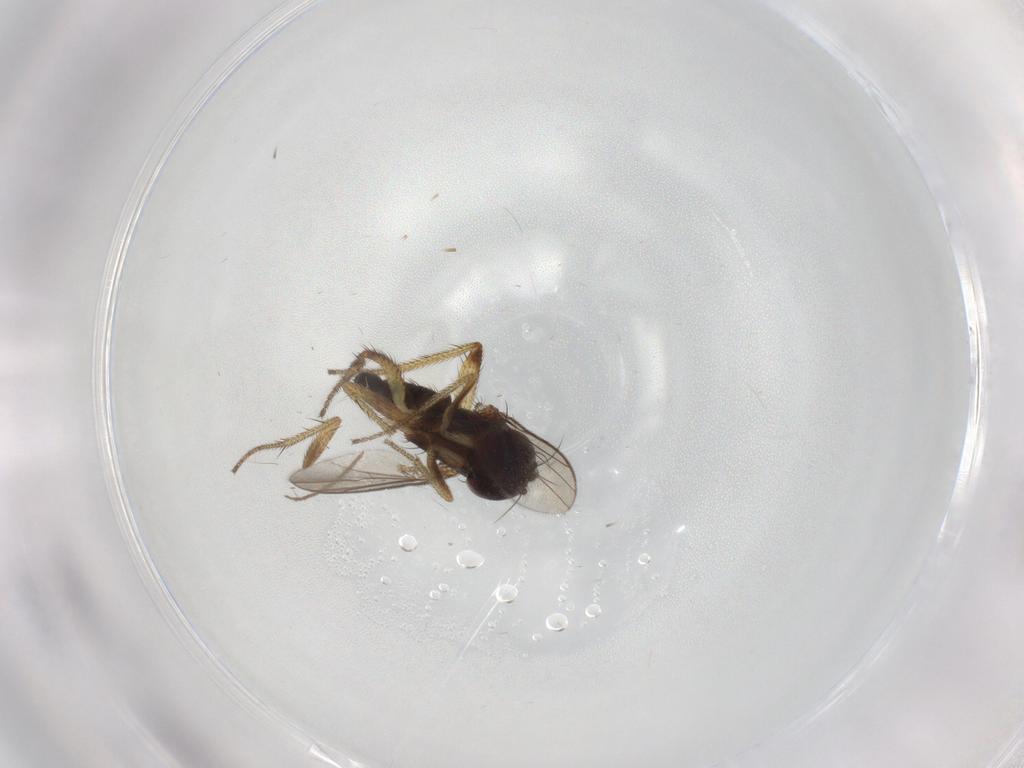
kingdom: Animalia
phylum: Arthropoda
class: Insecta
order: Diptera
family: Chironomidae
